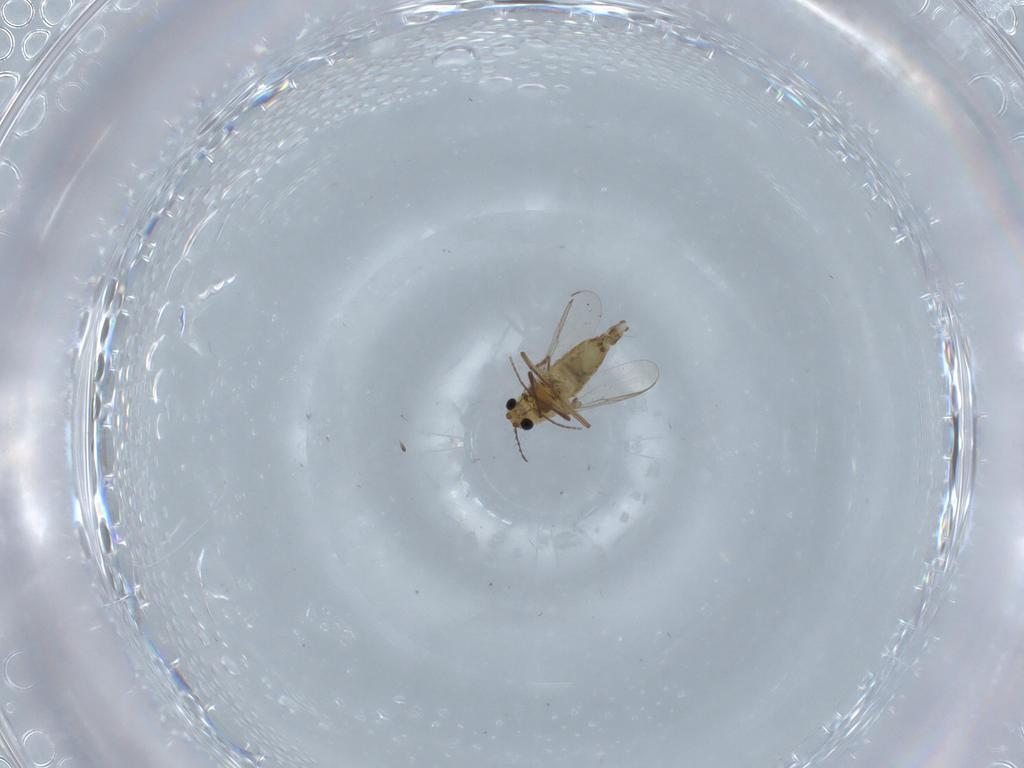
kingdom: Animalia
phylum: Arthropoda
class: Insecta
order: Diptera
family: Chironomidae
